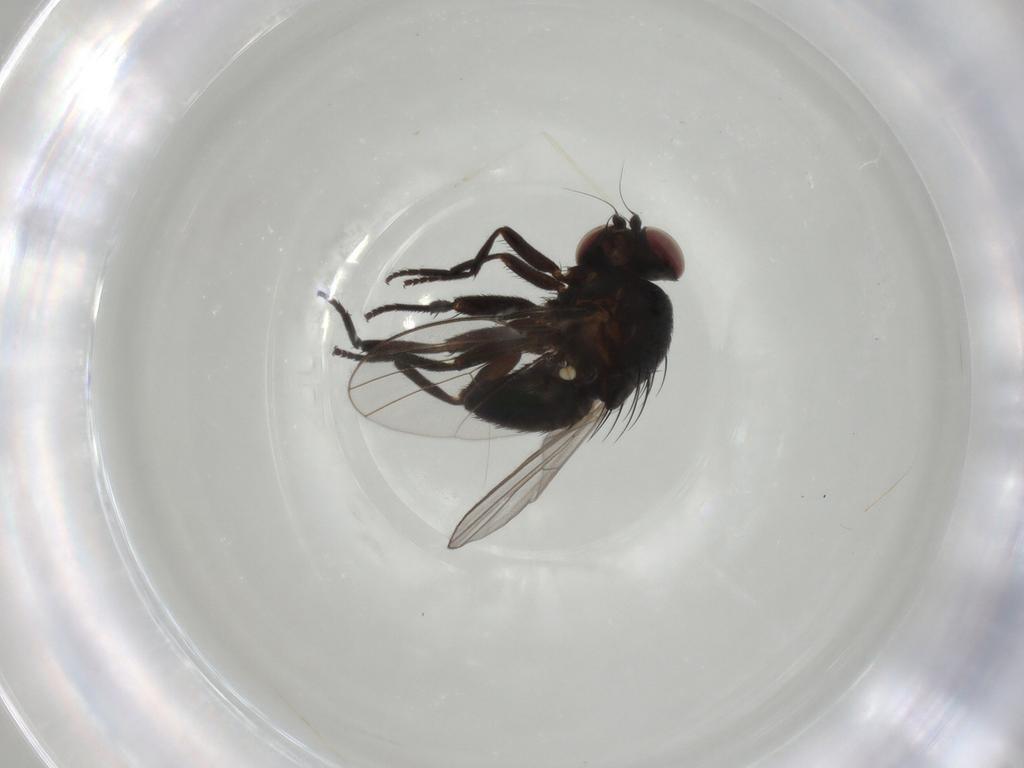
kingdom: Animalia
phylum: Arthropoda
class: Insecta
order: Diptera
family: Agromyzidae
